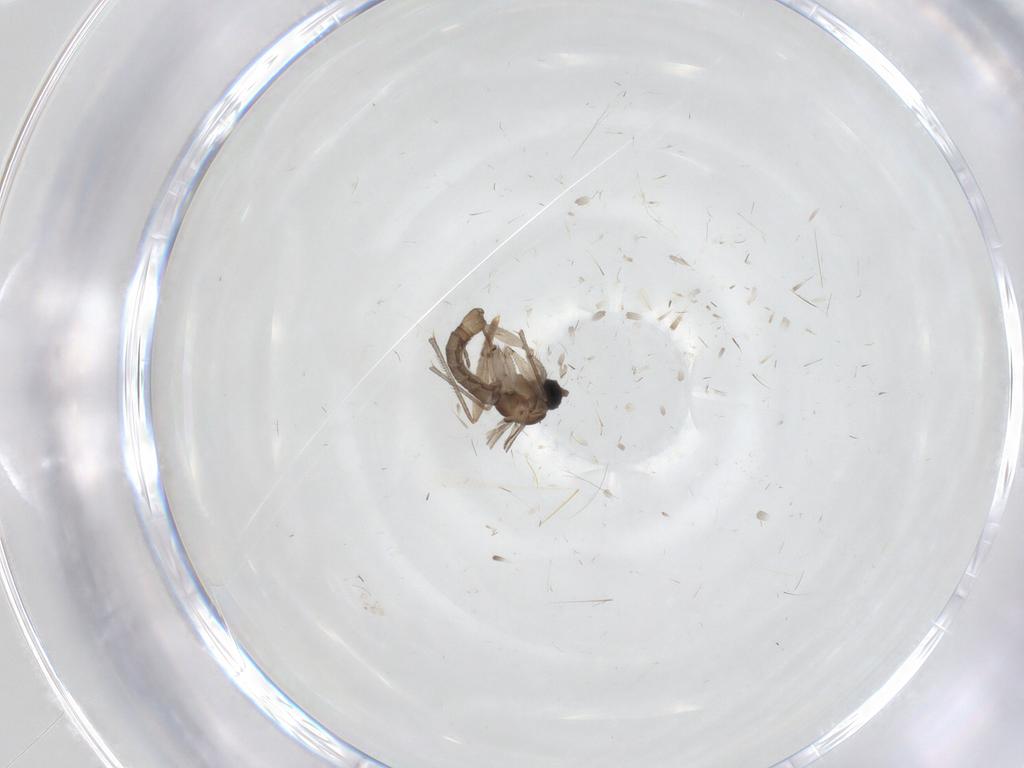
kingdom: Animalia
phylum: Arthropoda
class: Insecta
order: Diptera
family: Sciaridae
